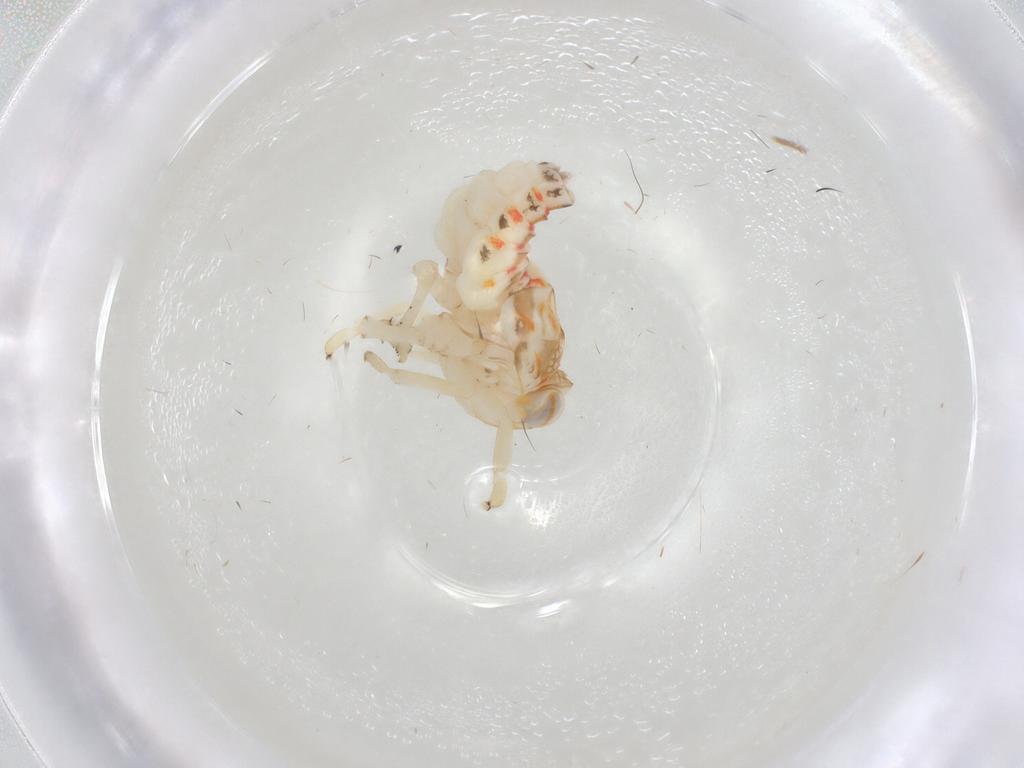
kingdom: Animalia
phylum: Arthropoda
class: Insecta
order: Hemiptera
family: Nogodinidae
